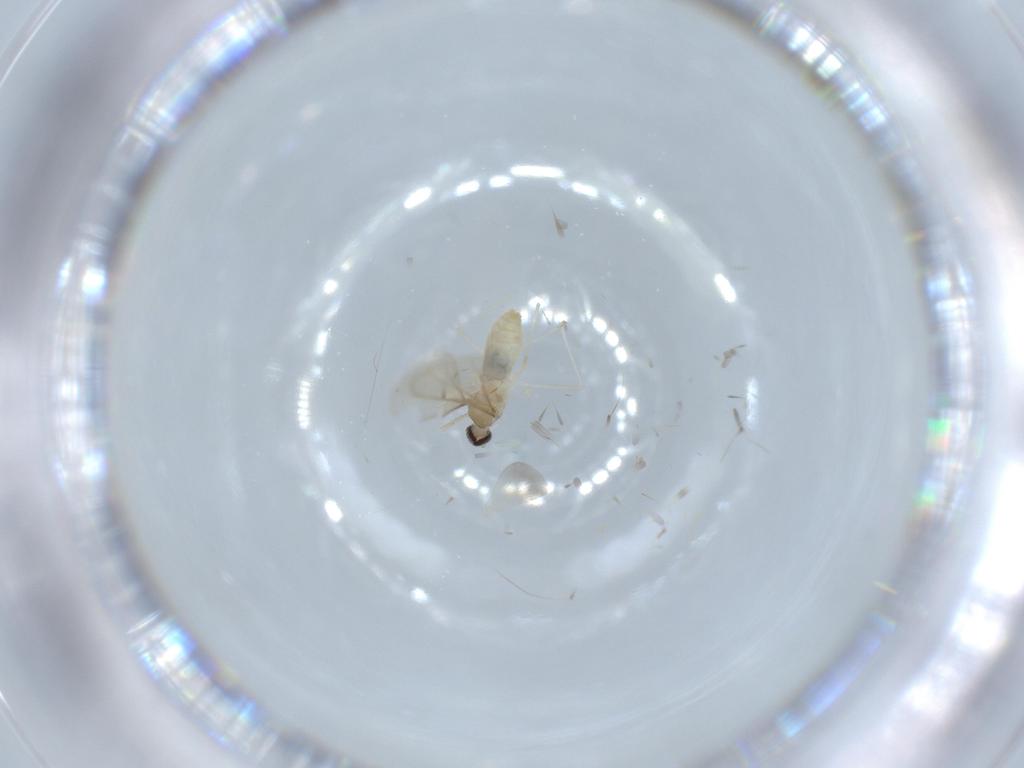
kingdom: Animalia
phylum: Arthropoda
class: Insecta
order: Diptera
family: Cecidomyiidae
